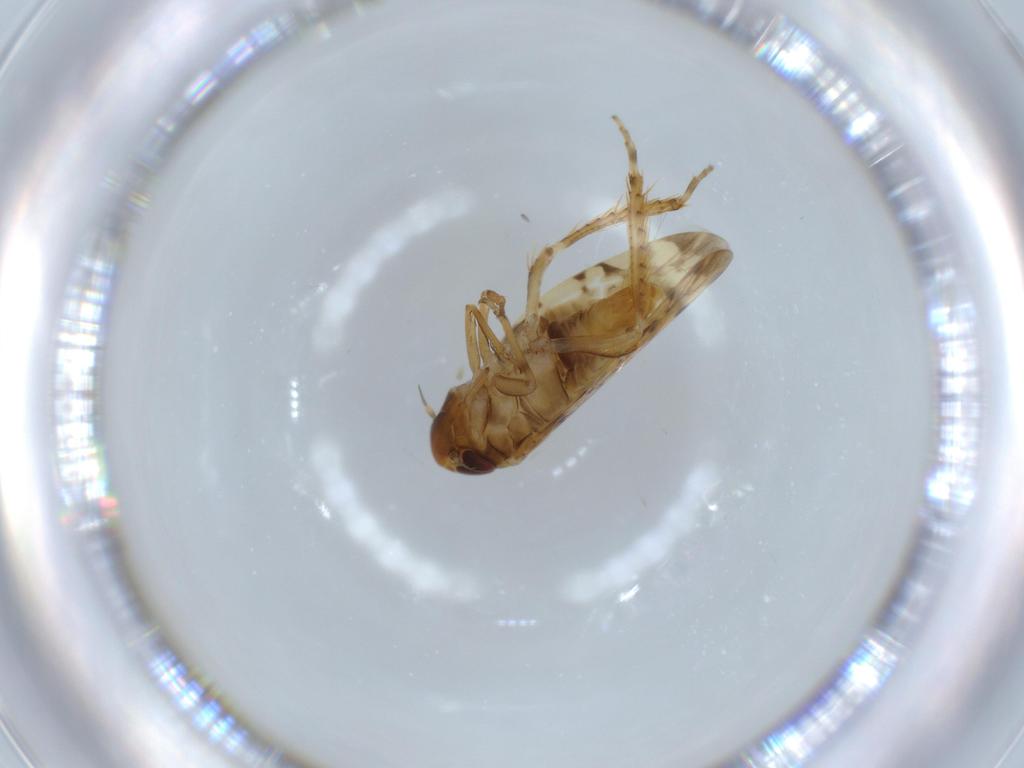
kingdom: Animalia
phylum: Arthropoda
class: Insecta
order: Hemiptera
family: Cicadellidae
